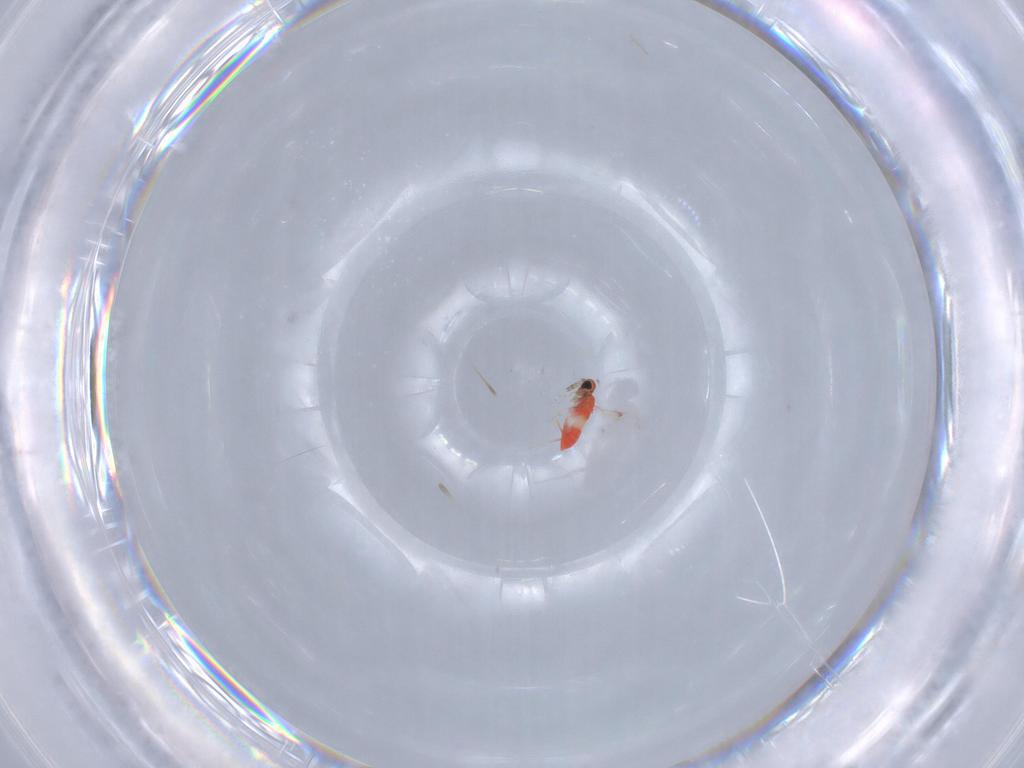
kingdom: Animalia
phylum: Arthropoda
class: Insecta
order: Hymenoptera
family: Trichogrammatidae
